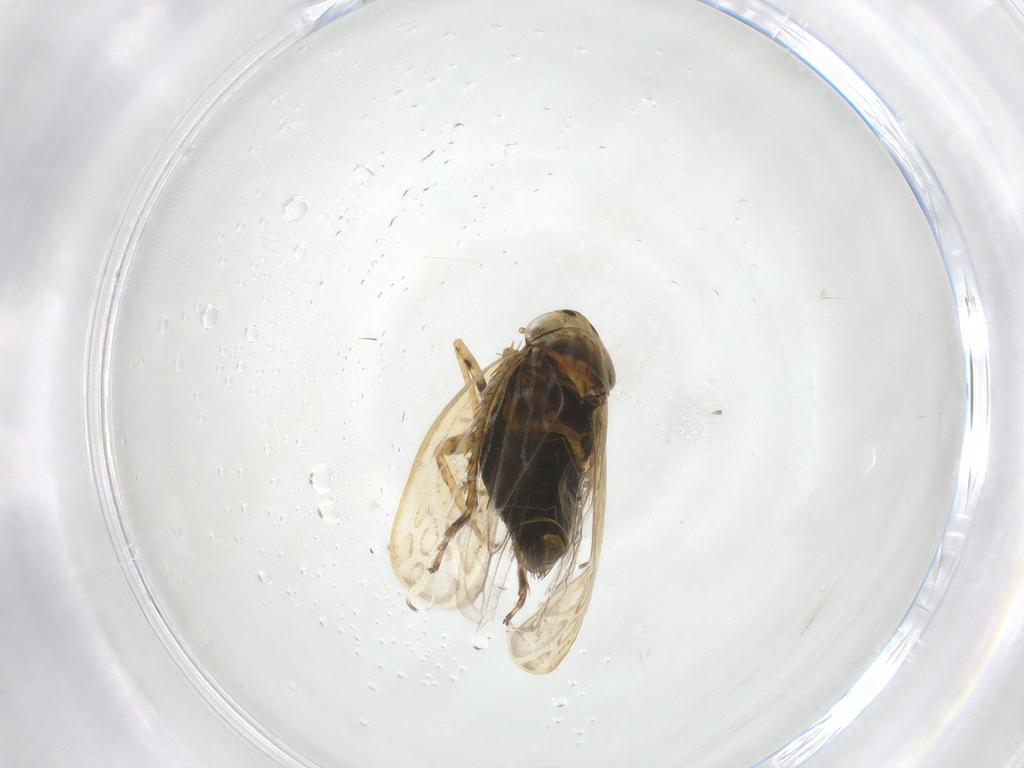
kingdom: Animalia
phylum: Arthropoda
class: Insecta
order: Hemiptera
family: Cicadellidae
